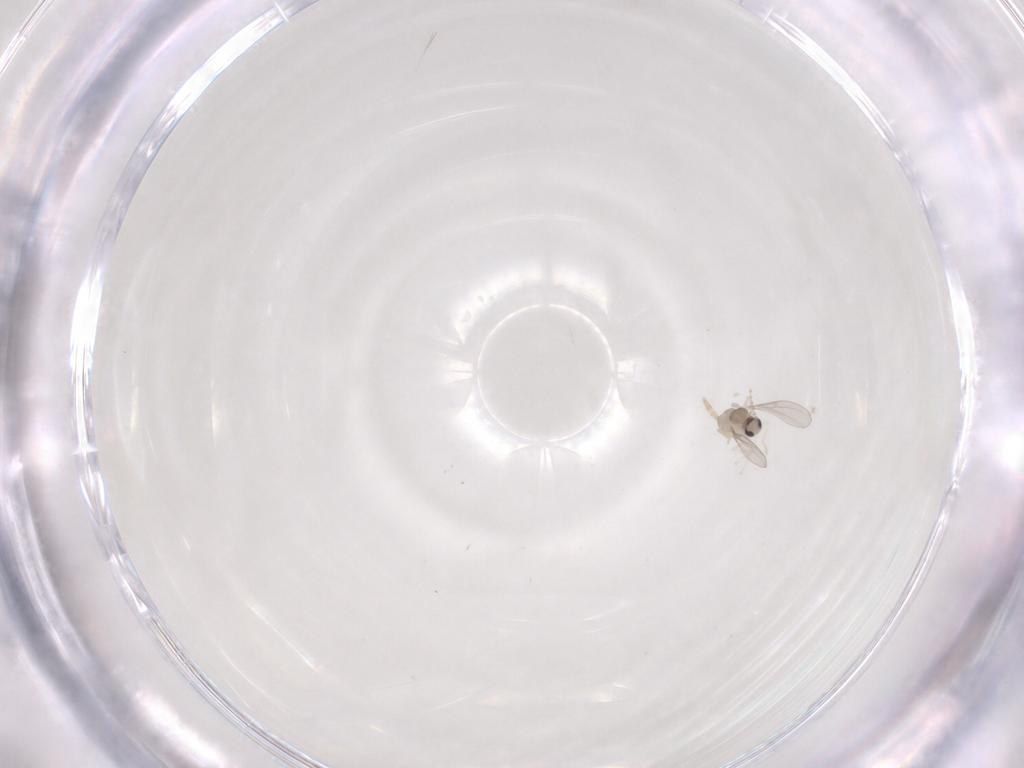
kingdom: Animalia
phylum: Arthropoda
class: Insecta
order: Diptera
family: Cecidomyiidae
